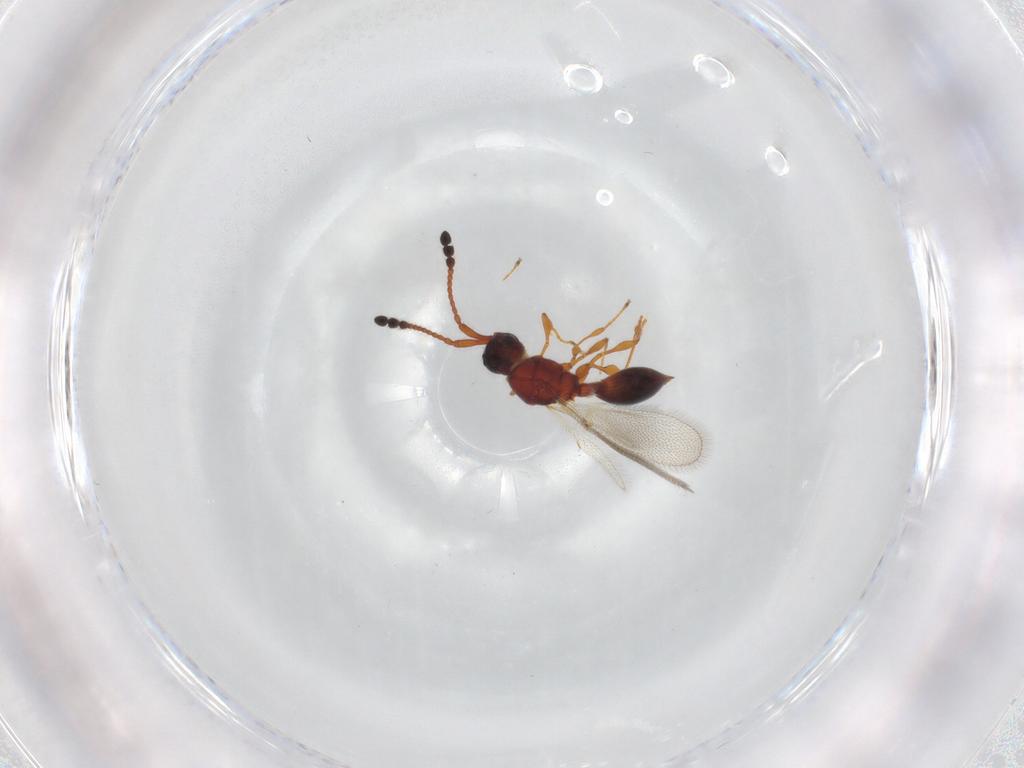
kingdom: Animalia
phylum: Arthropoda
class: Insecta
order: Hymenoptera
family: Diapriidae
